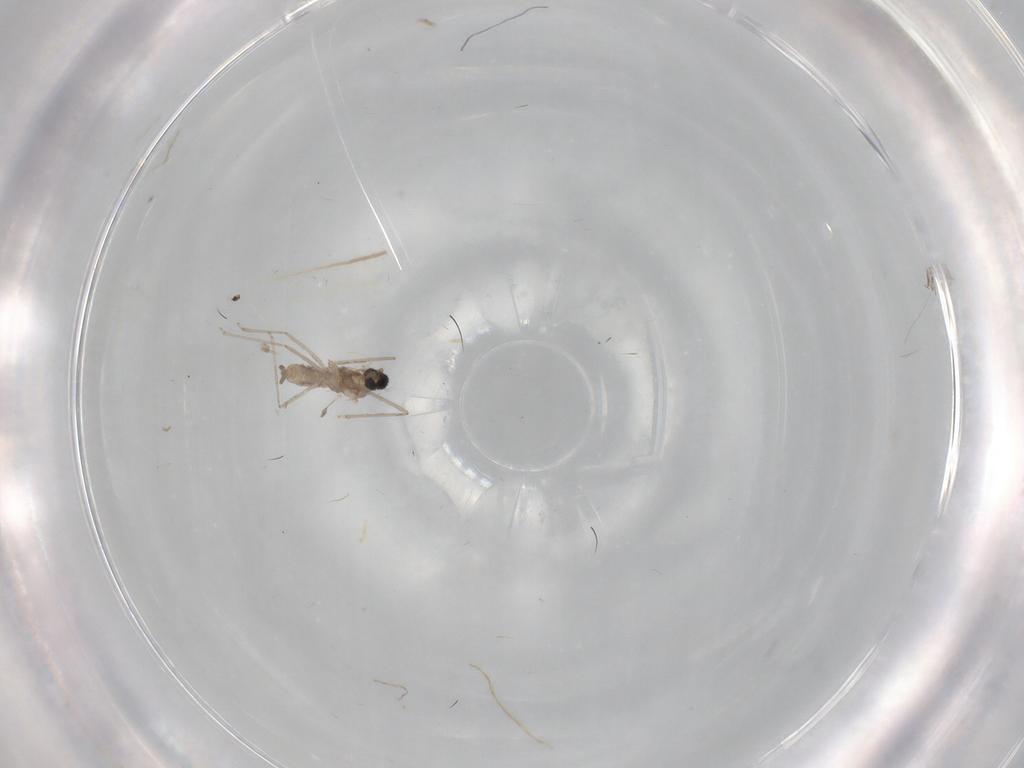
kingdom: Animalia
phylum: Arthropoda
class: Insecta
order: Diptera
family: Cecidomyiidae
